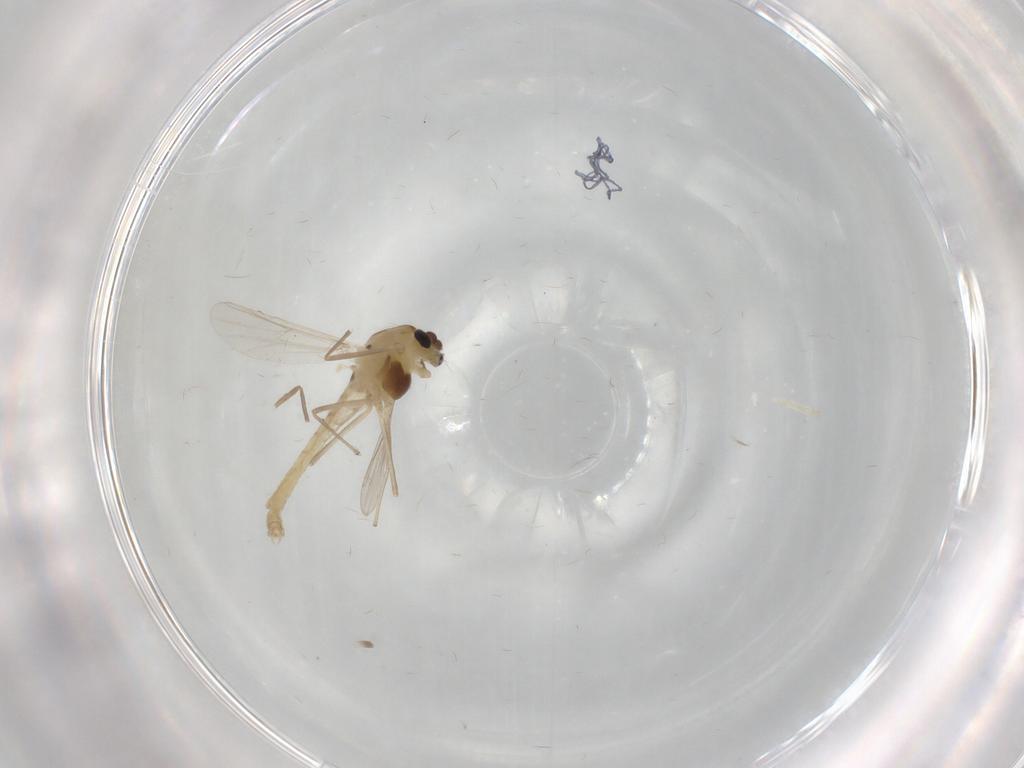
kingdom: Animalia
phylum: Arthropoda
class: Insecta
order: Diptera
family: Chironomidae
